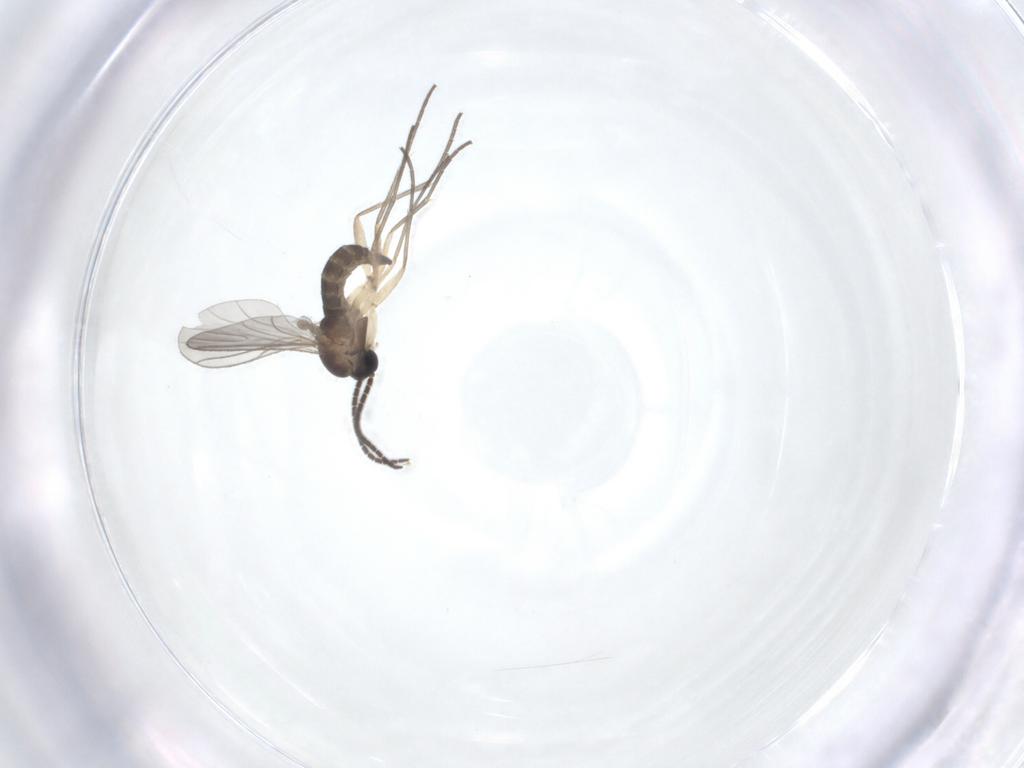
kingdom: Animalia
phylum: Arthropoda
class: Insecta
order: Diptera
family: Sciaridae
